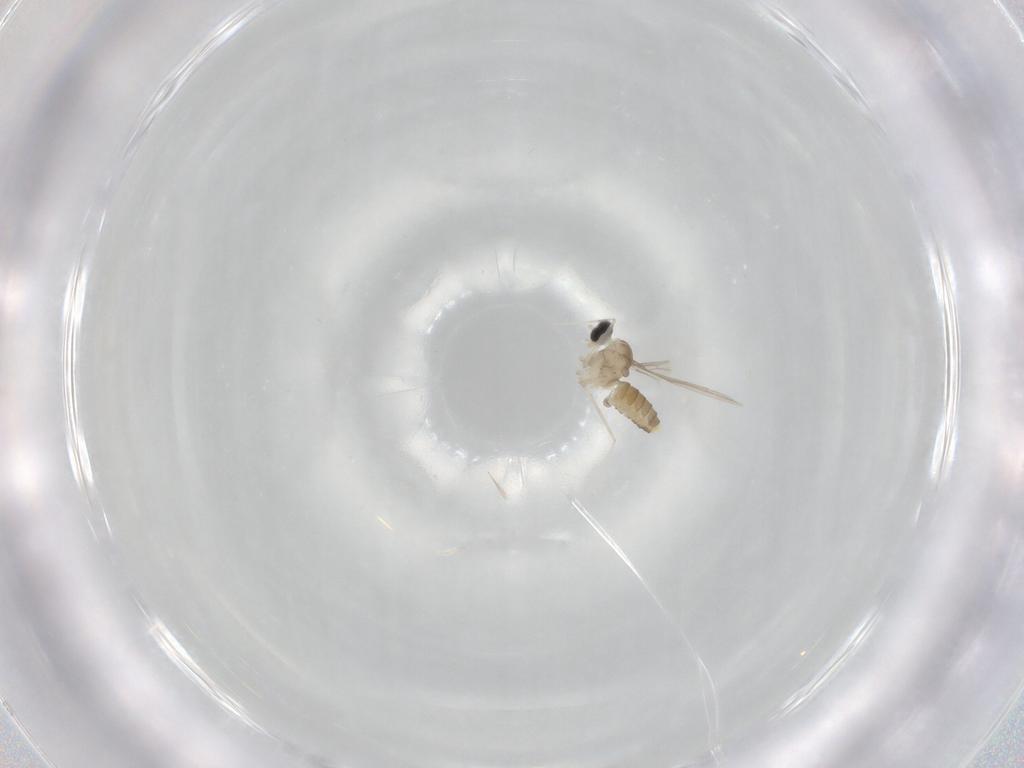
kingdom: Animalia
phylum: Arthropoda
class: Insecta
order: Diptera
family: Cecidomyiidae
